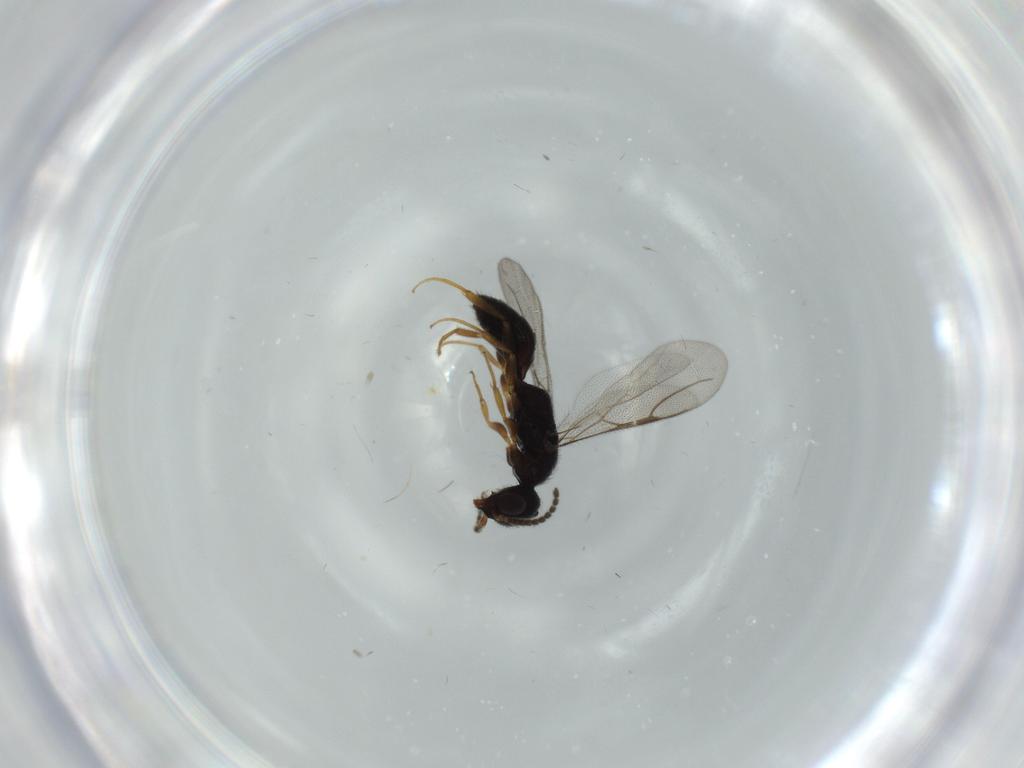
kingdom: Animalia
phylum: Arthropoda
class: Insecta
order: Hymenoptera
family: Bethylidae
